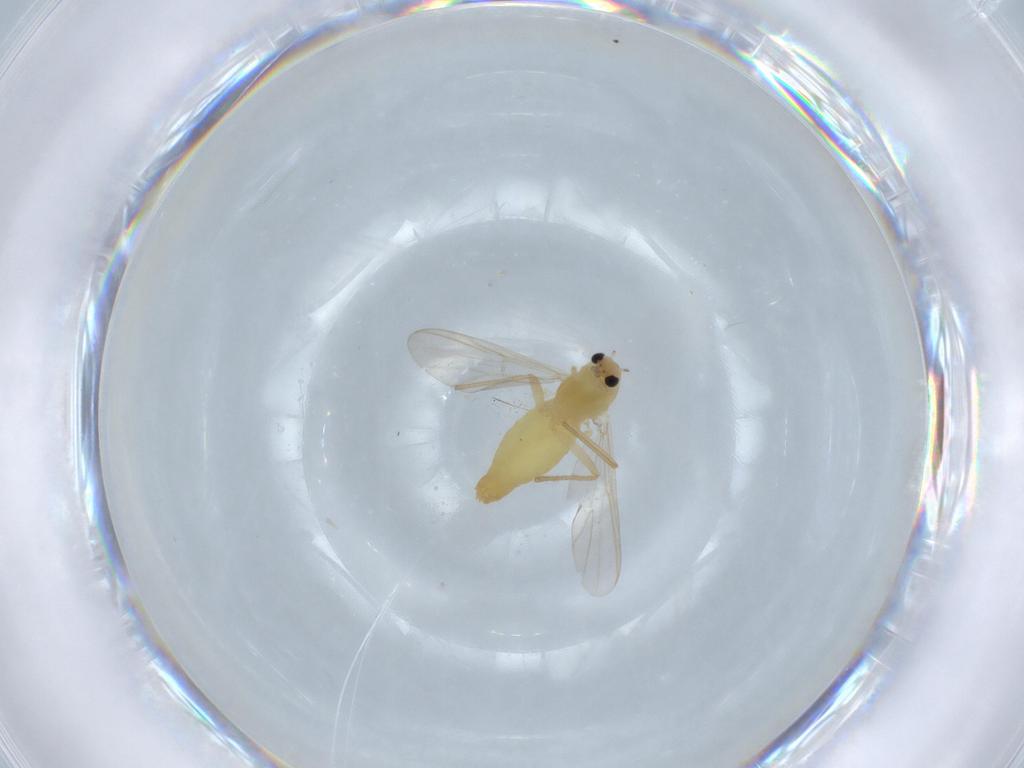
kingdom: Animalia
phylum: Arthropoda
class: Insecta
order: Diptera
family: Chironomidae
